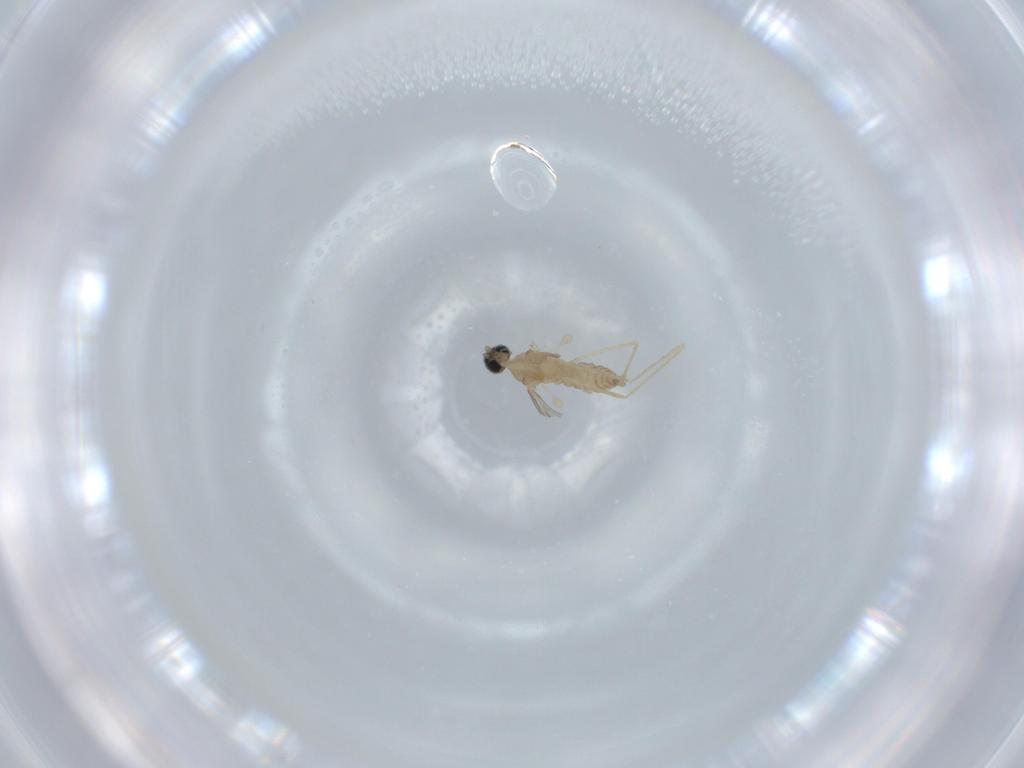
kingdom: Animalia
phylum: Arthropoda
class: Insecta
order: Diptera
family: Cecidomyiidae
